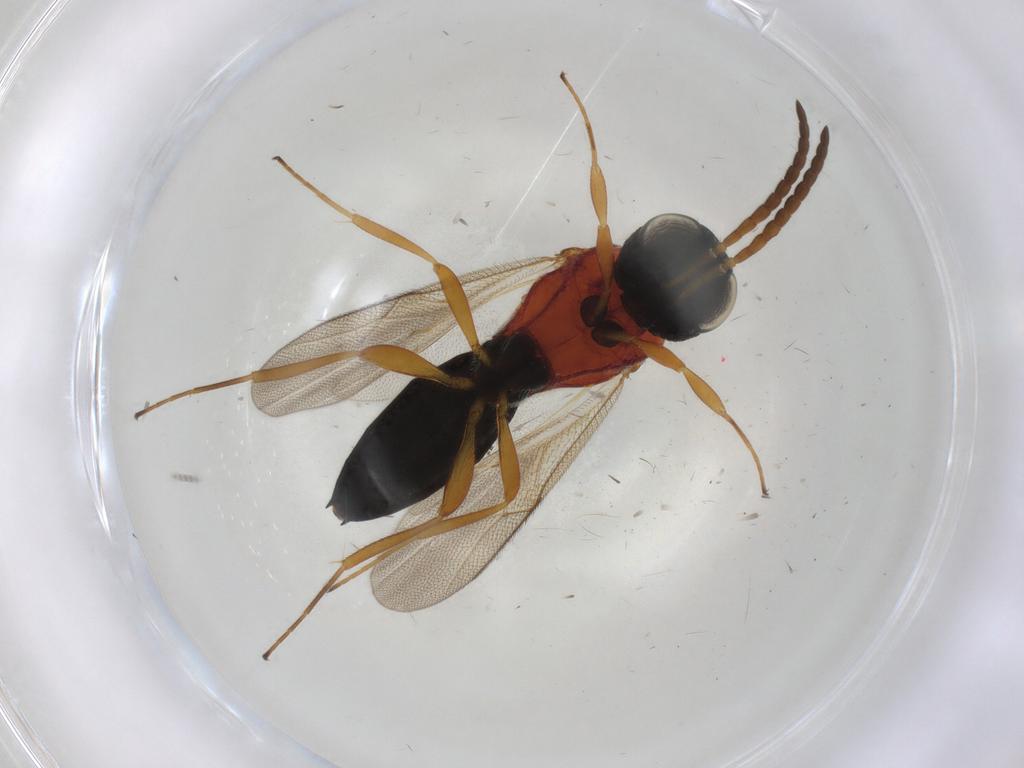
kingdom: Animalia
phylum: Arthropoda
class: Insecta
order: Hymenoptera
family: Scelionidae
